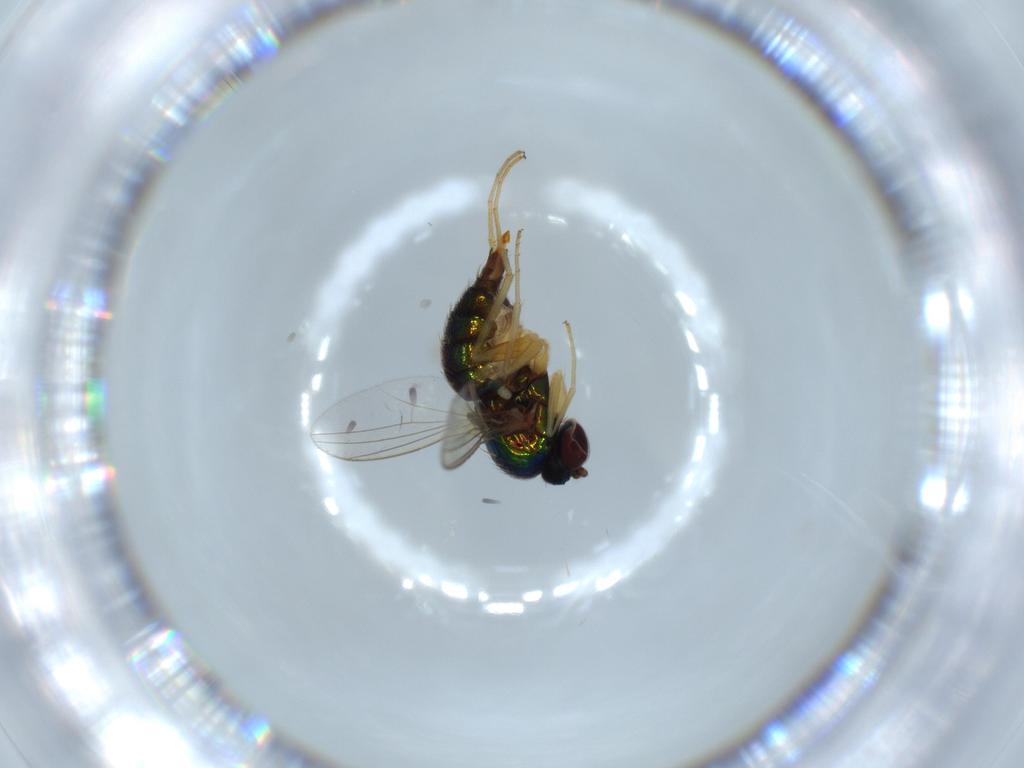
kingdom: Animalia
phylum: Arthropoda
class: Insecta
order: Diptera
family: Dolichopodidae
